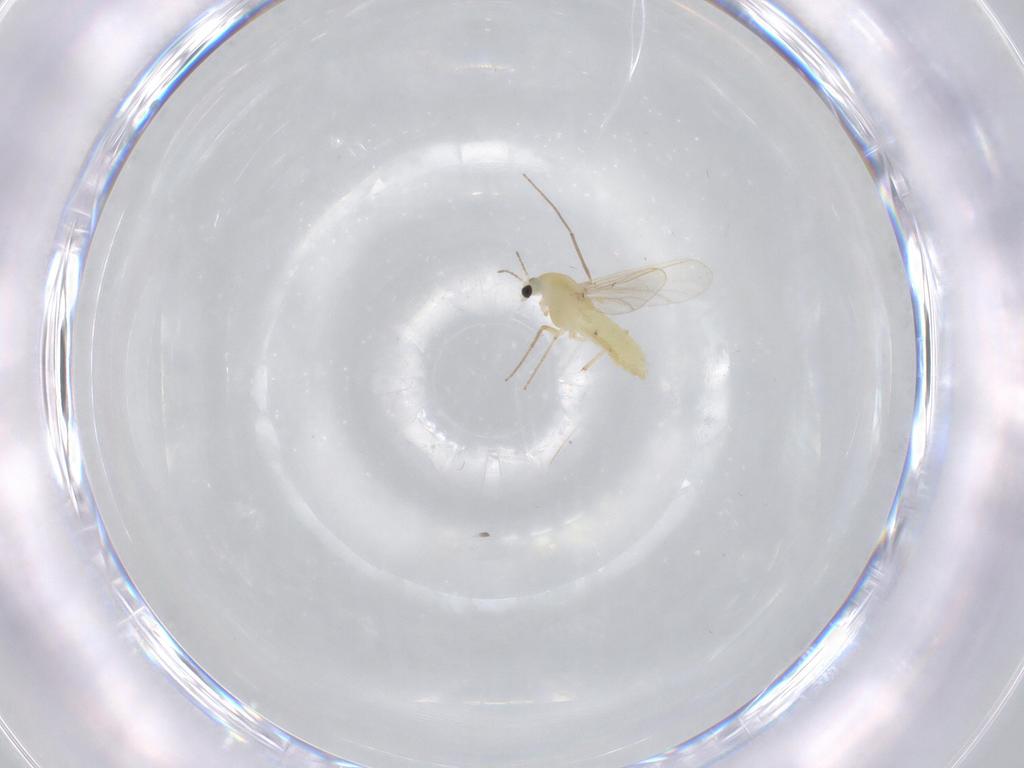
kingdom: Animalia
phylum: Arthropoda
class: Insecta
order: Diptera
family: Chironomidae
